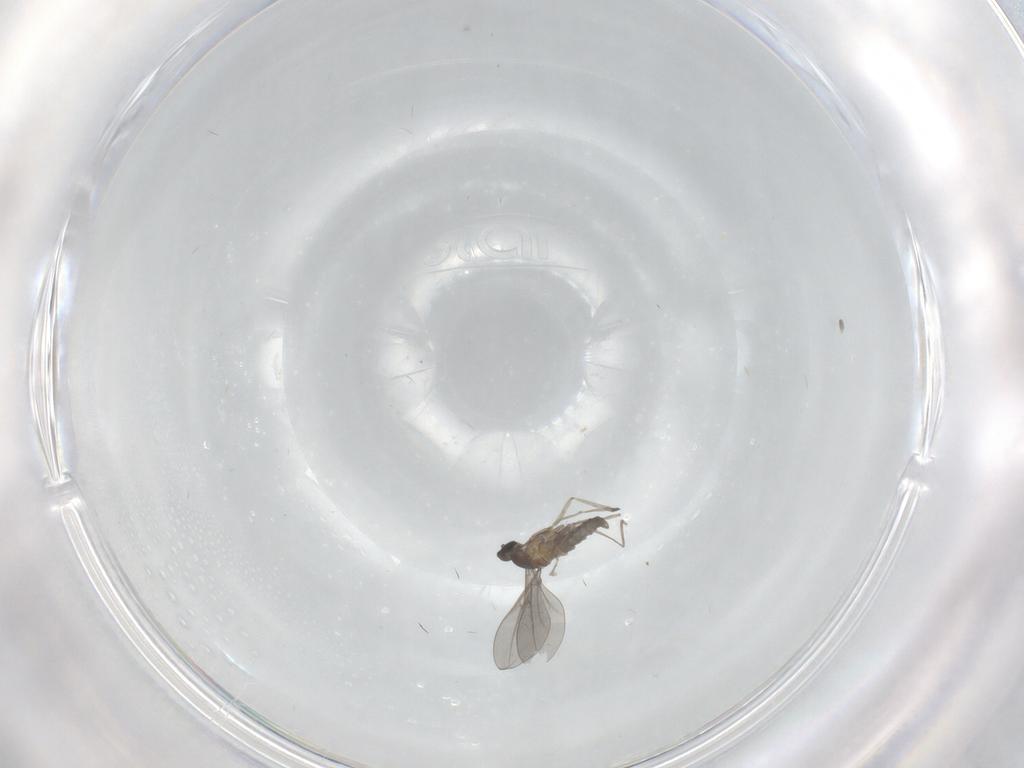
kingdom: Animalia
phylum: Arthropoda
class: Insecta
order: Diptera
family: Cecidomyiidae
